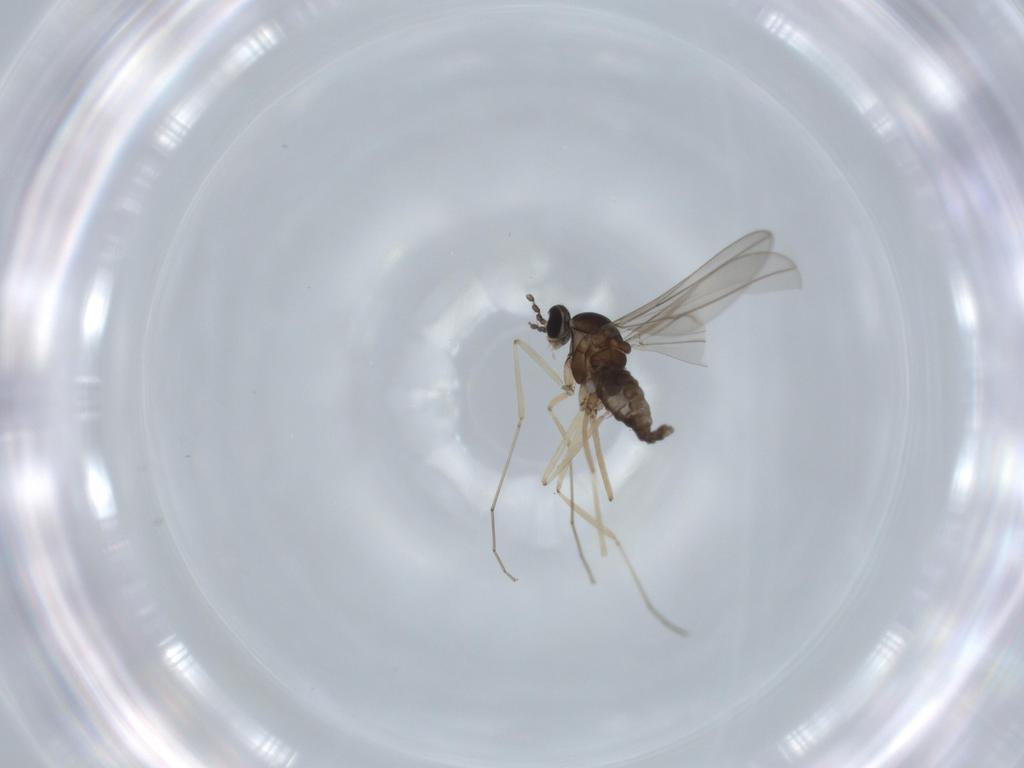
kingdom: Animalia
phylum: Arthropoda
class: Insecta
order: Diptera
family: Cecidomyiidae
